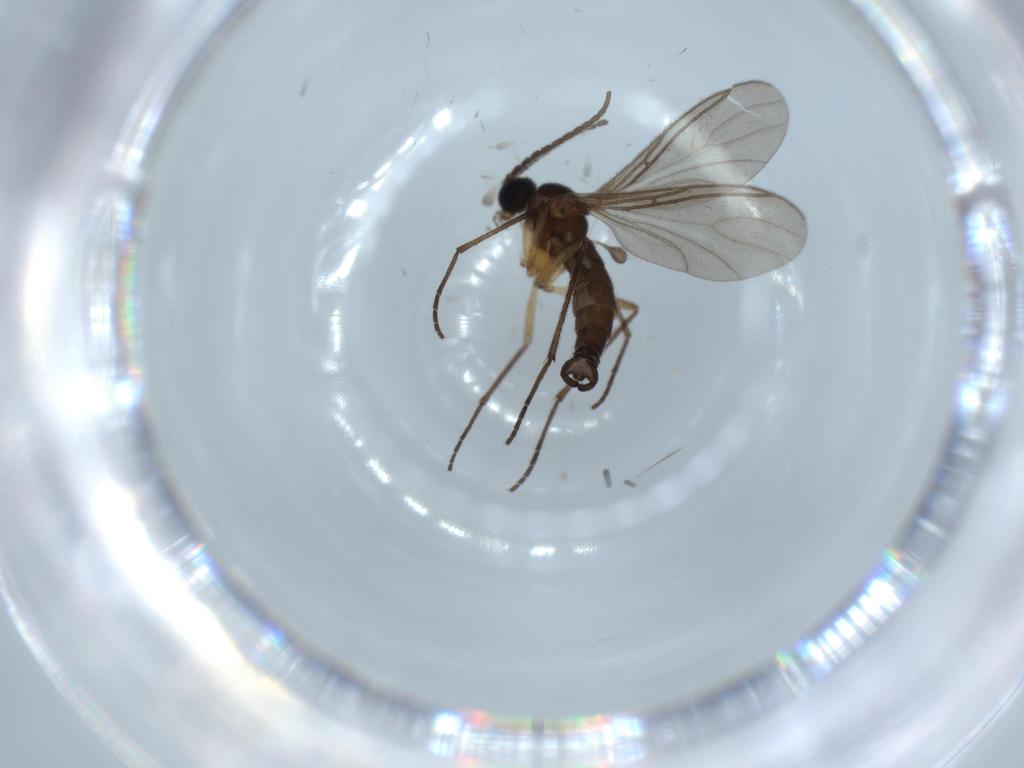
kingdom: Animalia
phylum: Arthropoda
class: Insecta
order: Diptera
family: Sciaridae
